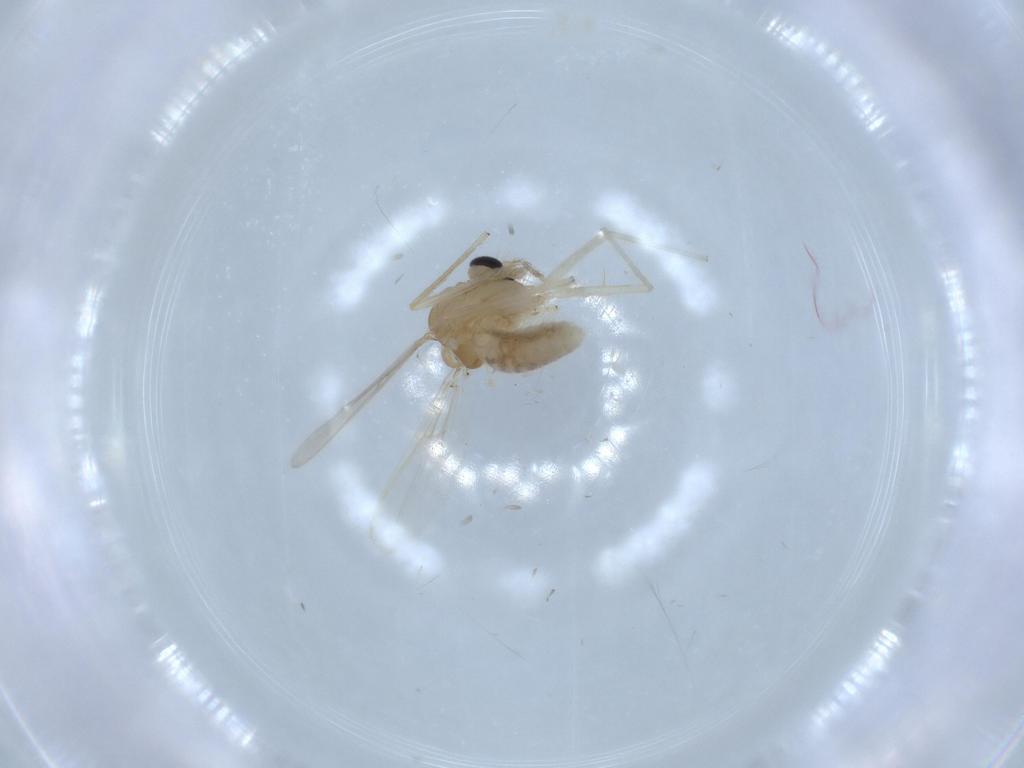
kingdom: Animalia
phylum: Arthropoda
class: Insecta
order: Diptera
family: Chironomidae
